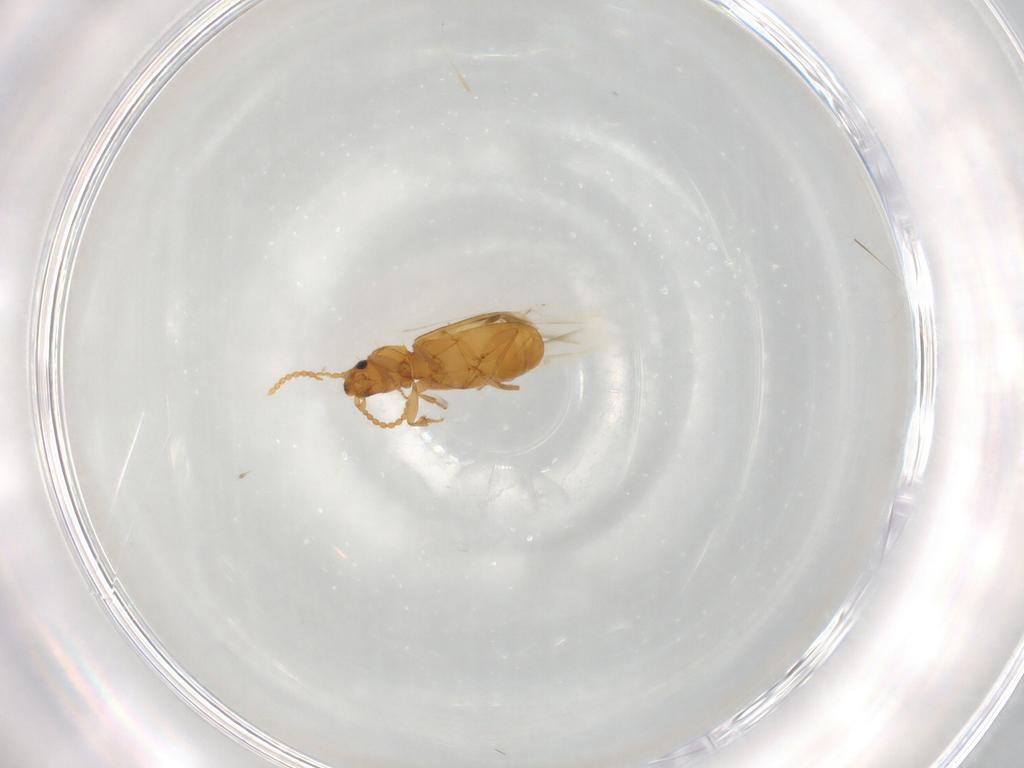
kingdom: Animalia
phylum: Arthropoda
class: Insecta
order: Coleoptera
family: Carabidae
